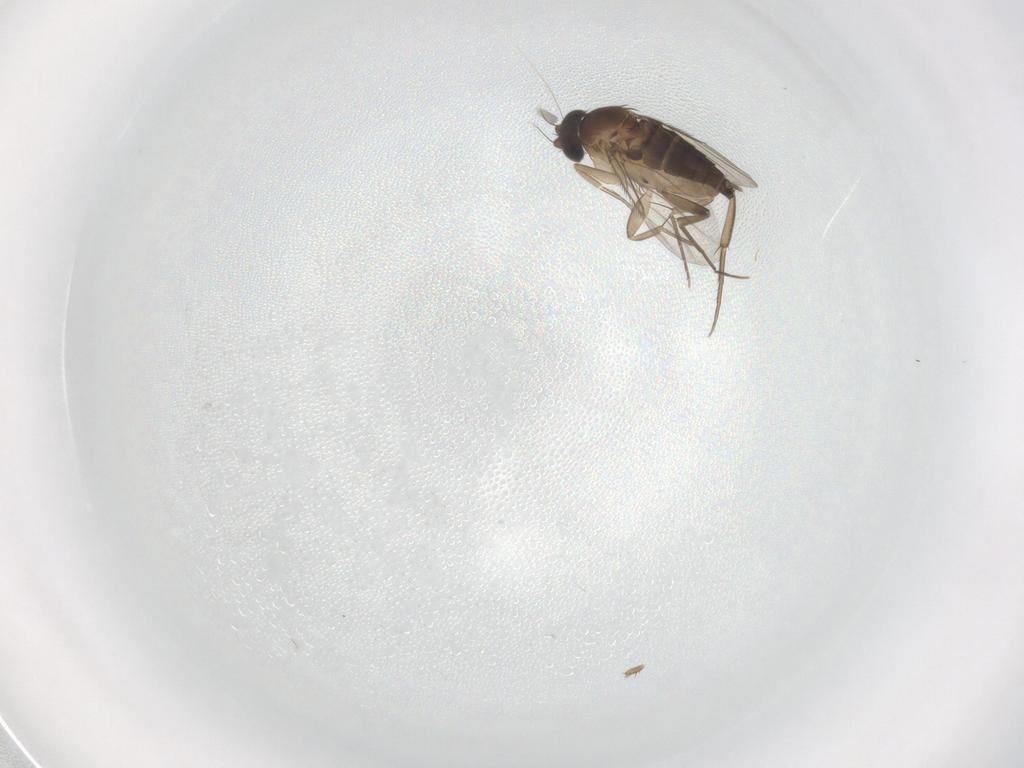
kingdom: Animalia
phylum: Arthropoda
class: Insecta
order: Diptera
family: Phoridae
